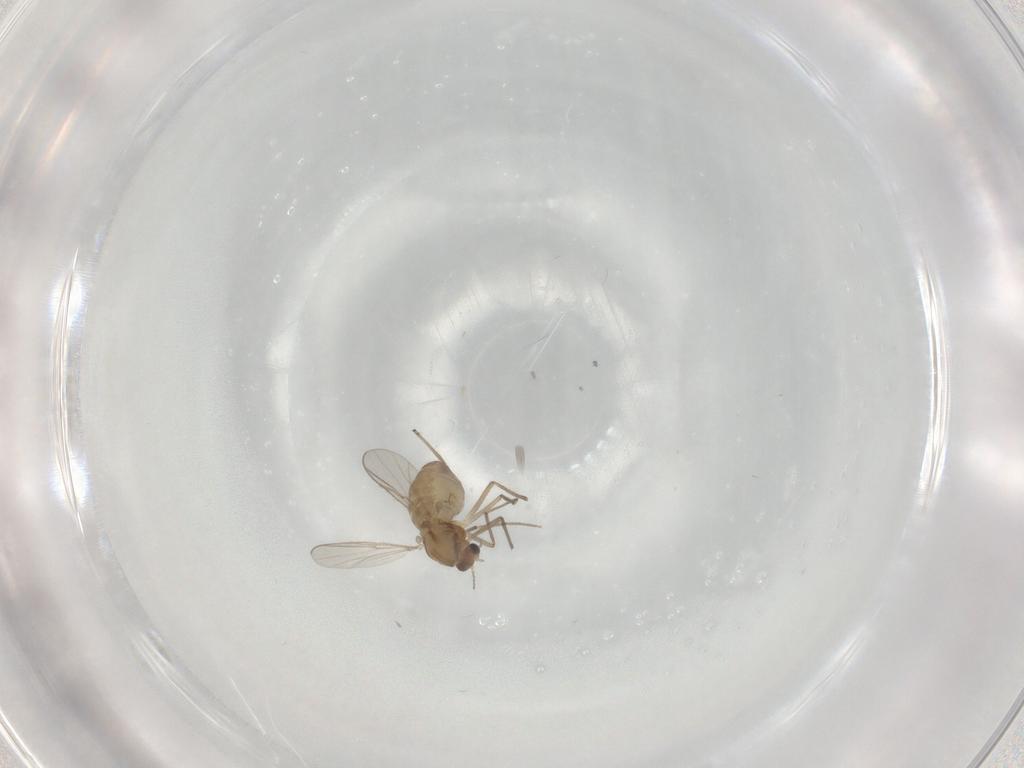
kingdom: Animalia
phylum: Arthropoda
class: Insecta
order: Diptera
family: Chironomidae
